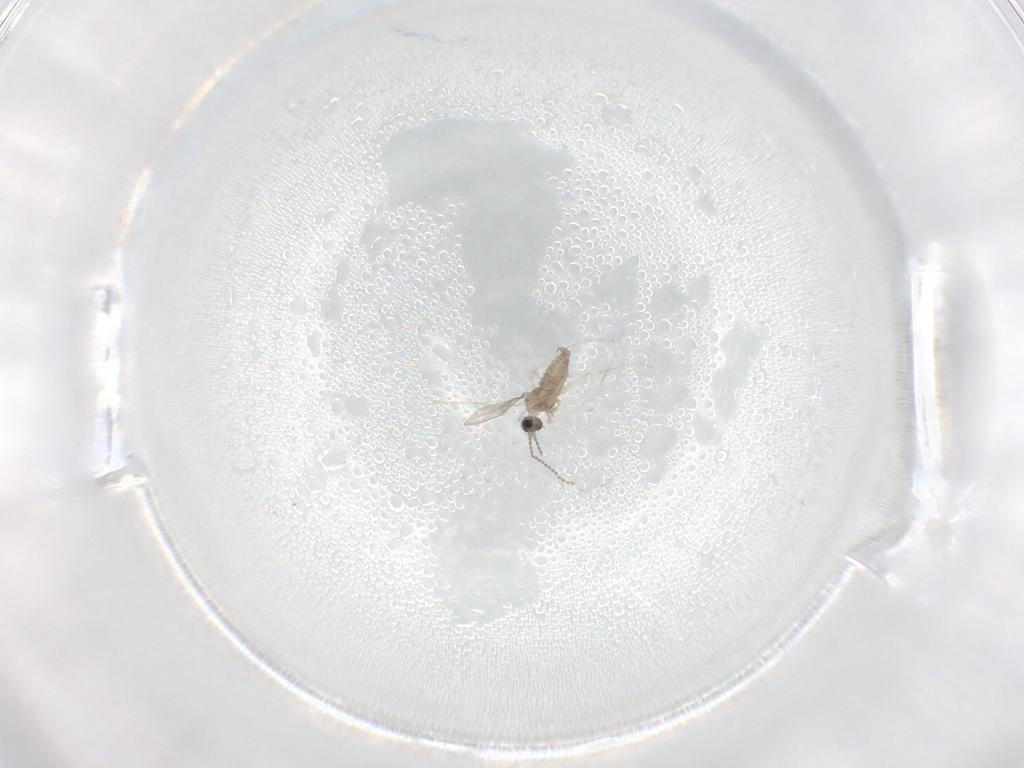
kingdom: Animalia
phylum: Arthropoda
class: Insecta
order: Diptera
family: Cecidomyiidae
